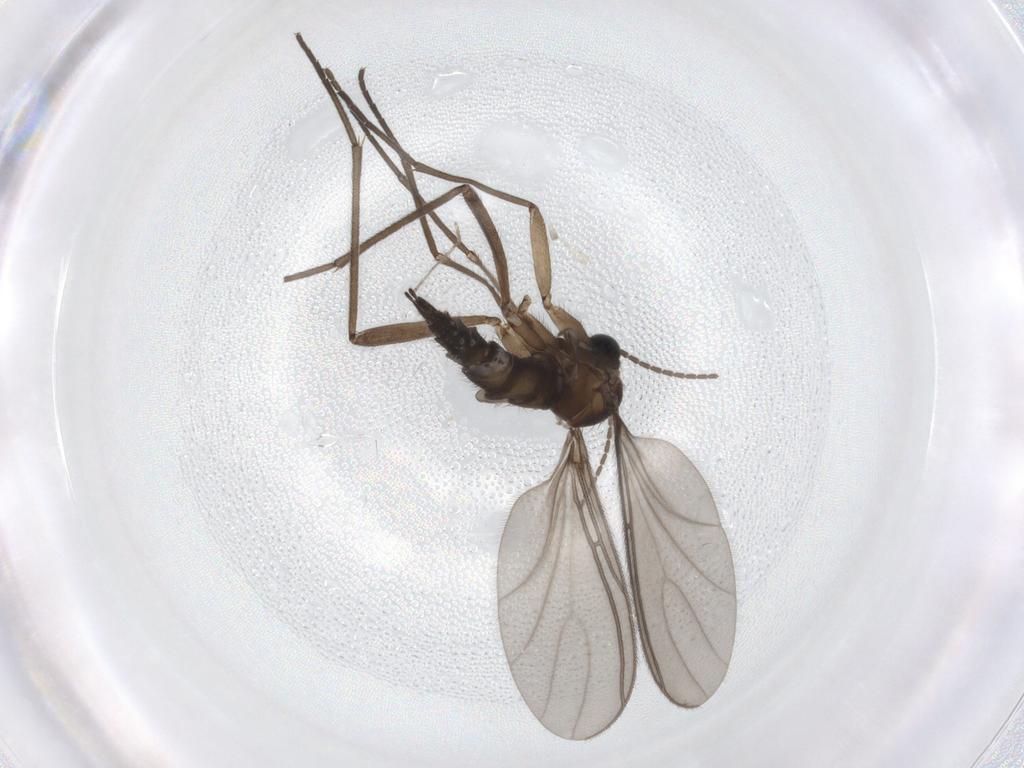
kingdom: Animalia
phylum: Arthropoda
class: Insecta
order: Diptera
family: Sciaridae
